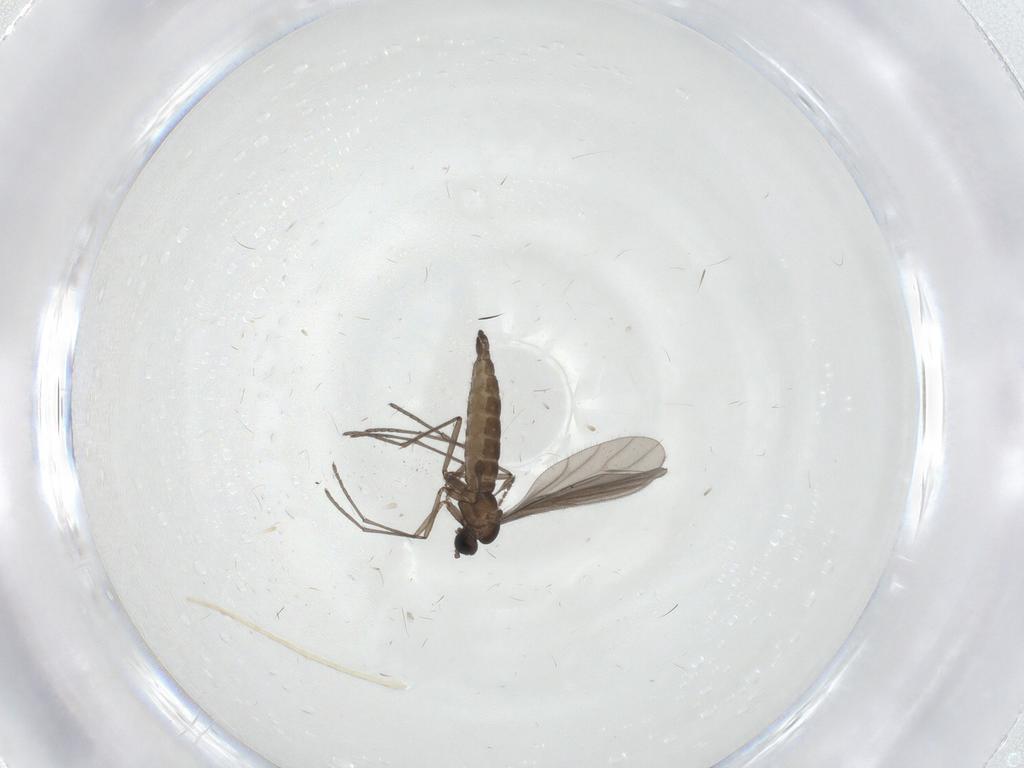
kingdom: Animalia
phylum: Arthropoda
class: Insecta
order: Diptera
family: Sciaridae
